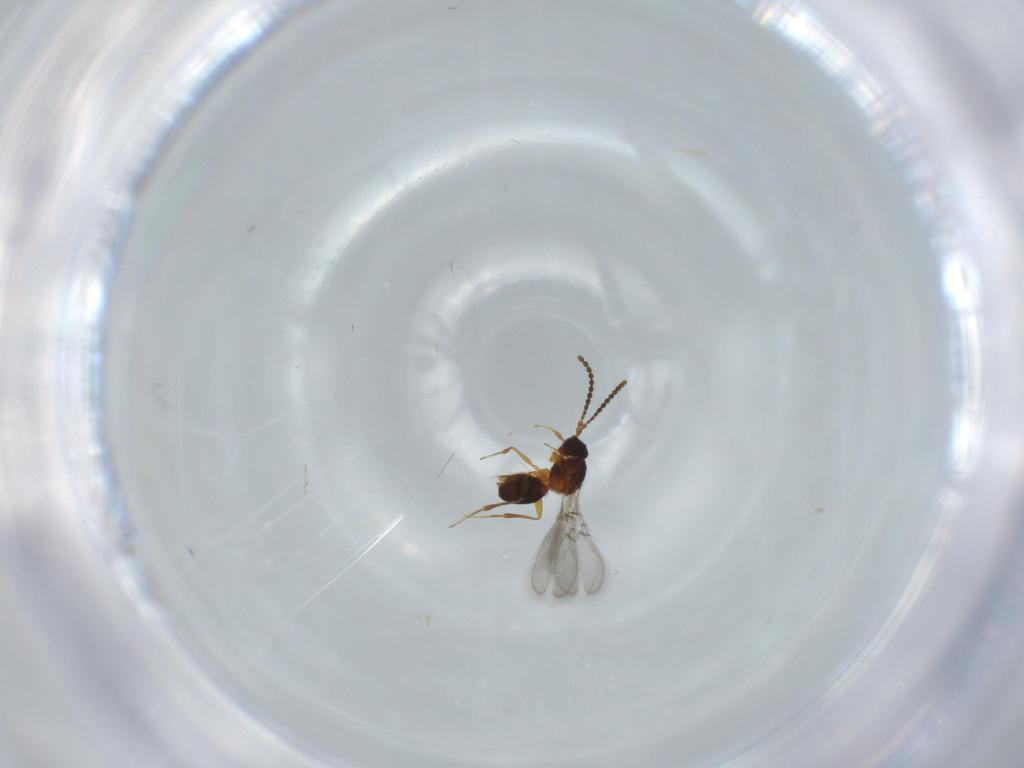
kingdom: Animalia
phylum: Arthropoda
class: Insecta
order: Hymenoptera
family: Figitidae
